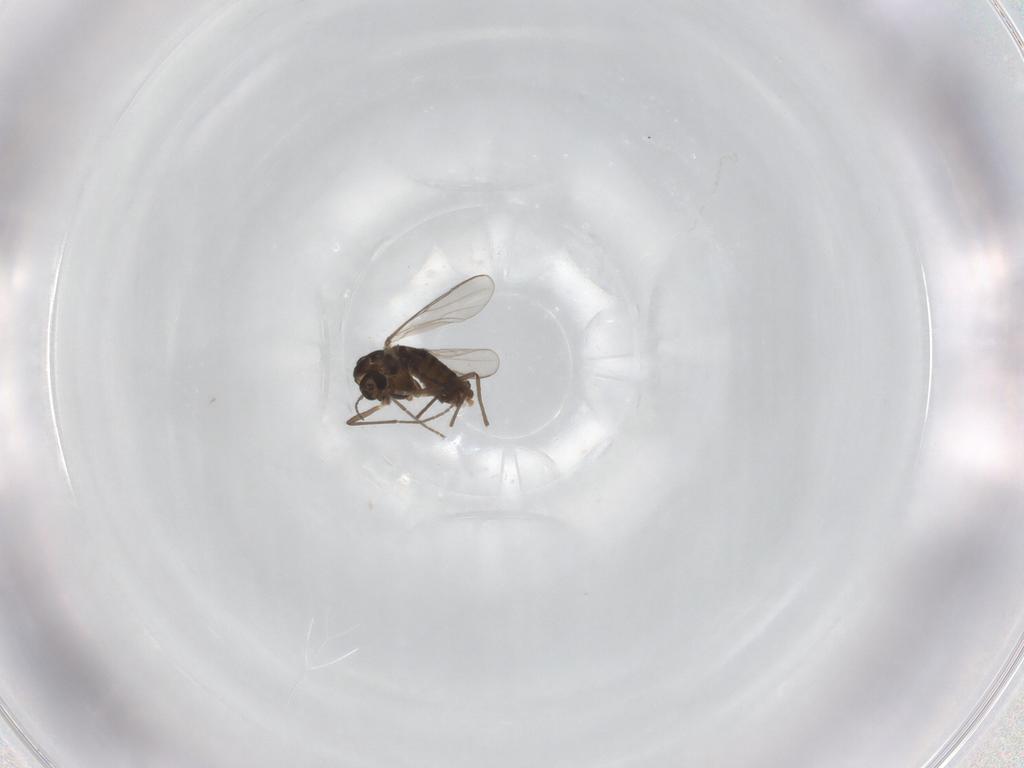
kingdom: Animalia
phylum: Arthropoda
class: Insecta
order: Diptera
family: Chironomidae
